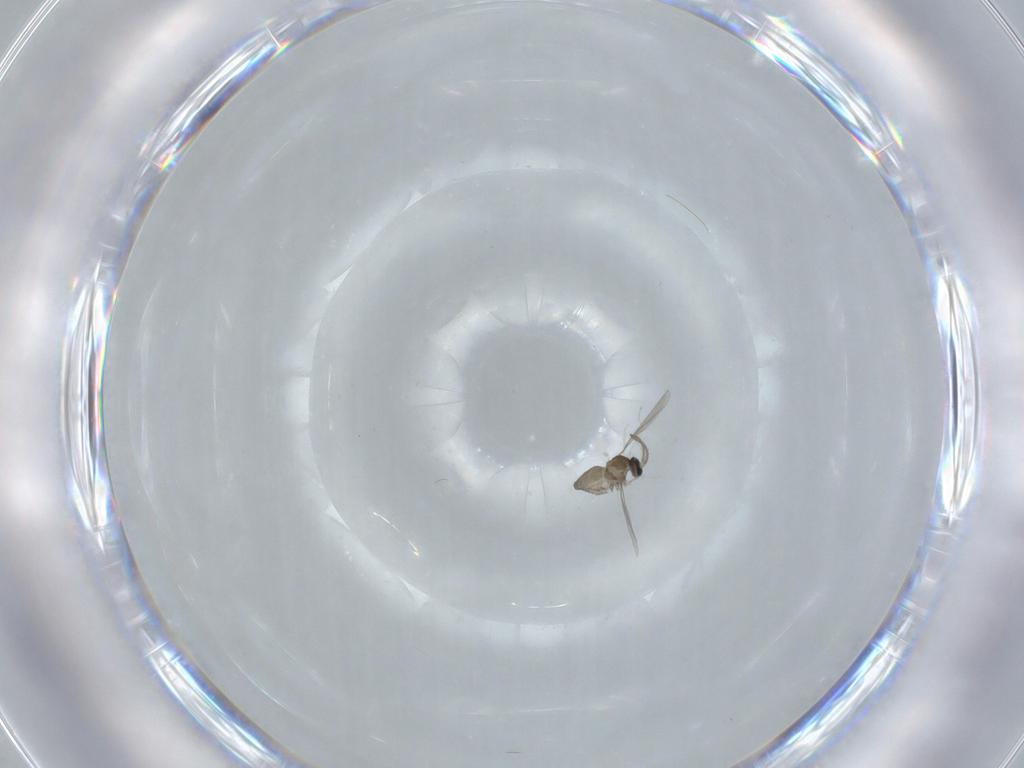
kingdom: Animalia
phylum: Arthropoda
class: Insecta
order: Diptera
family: Cecidomyiidae
